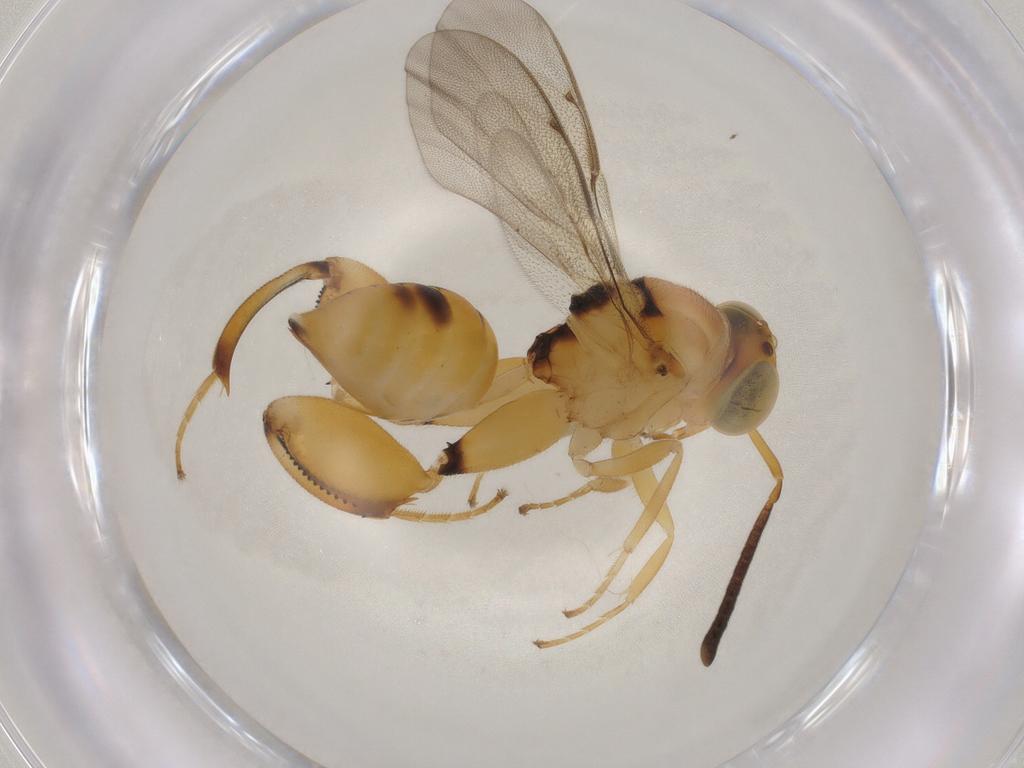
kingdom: Animalia
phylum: Arthropoda
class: Insecta
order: Hymenoptera
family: Chalcididae
